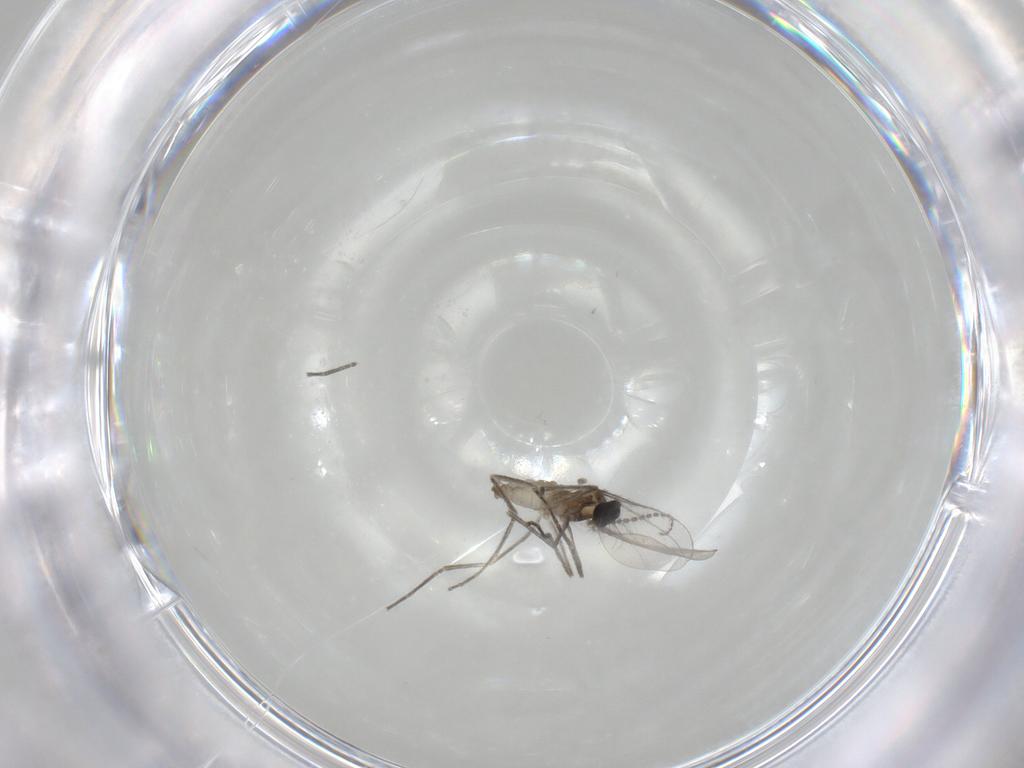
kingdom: Animalia
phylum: Arthropoda
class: Insecta
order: Diptera
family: Cecidomyiidae
